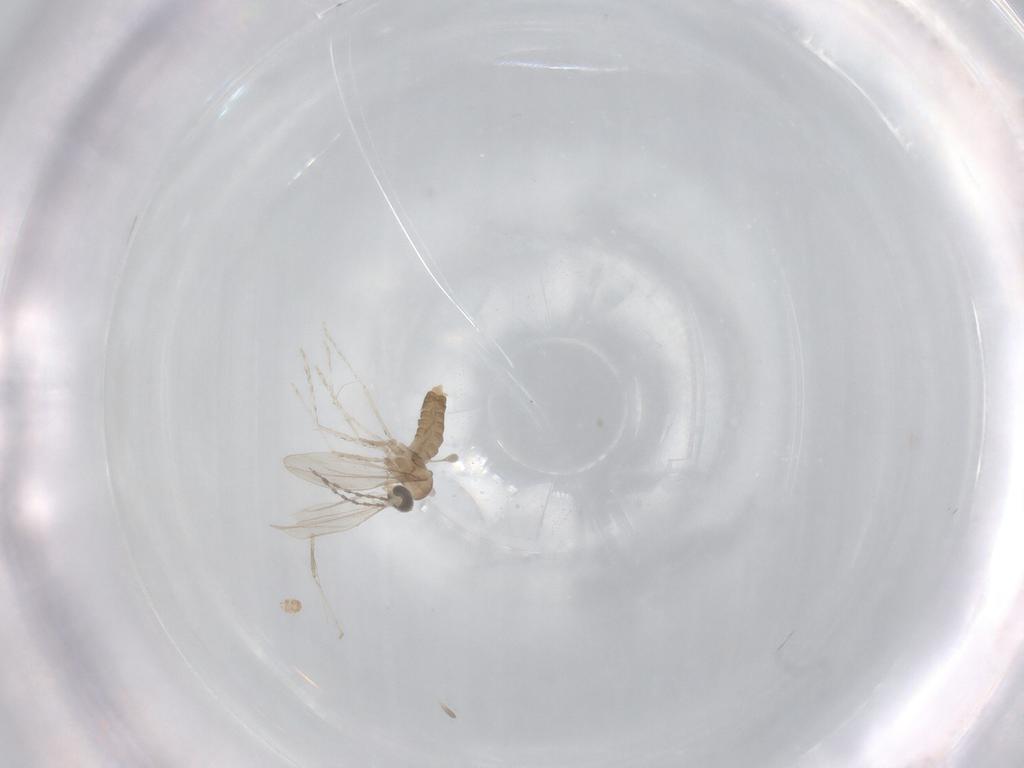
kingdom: Animalia
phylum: Arthropoda
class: Insecta
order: Diptera
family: Cecidomyiidae
